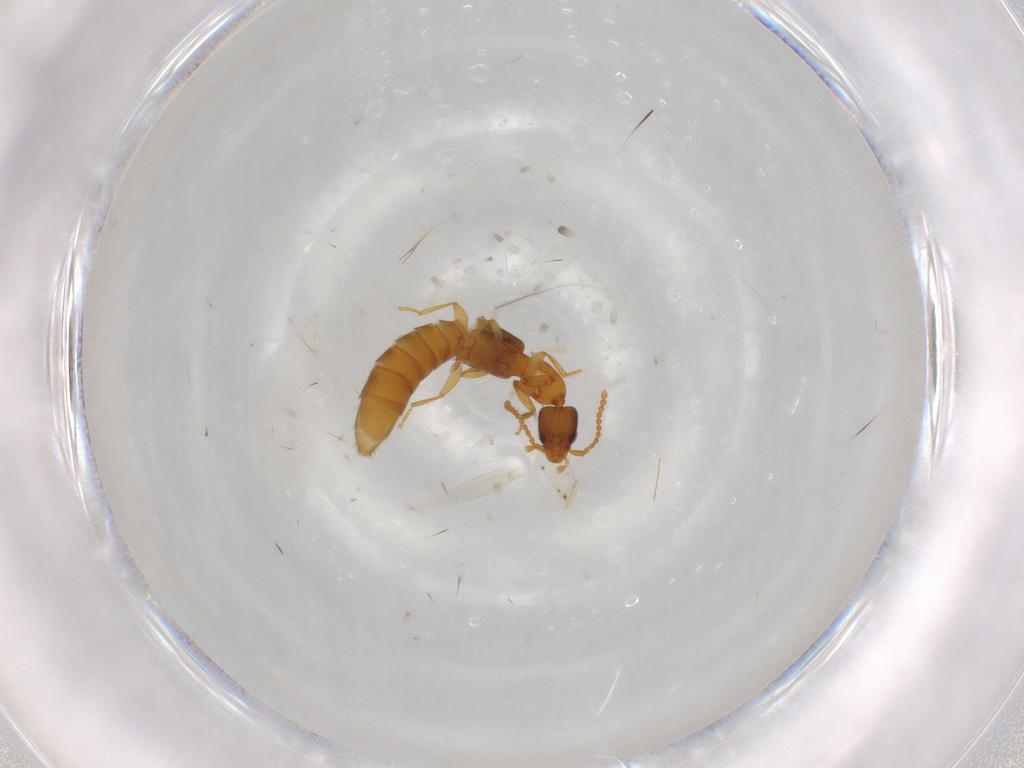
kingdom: Animalia
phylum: Arthropoda
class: Insecta
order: Coleoptera
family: Staphylinidae
